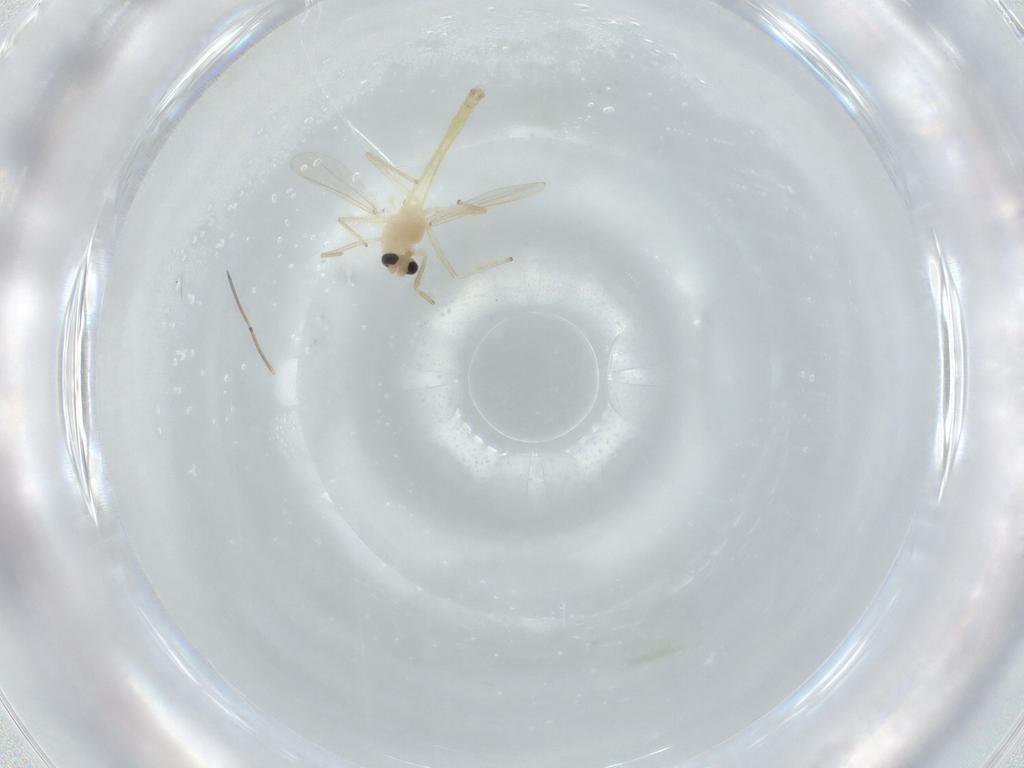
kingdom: Animalia
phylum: Arthropoda
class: Insecta
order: Diptera
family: Chironomidae
